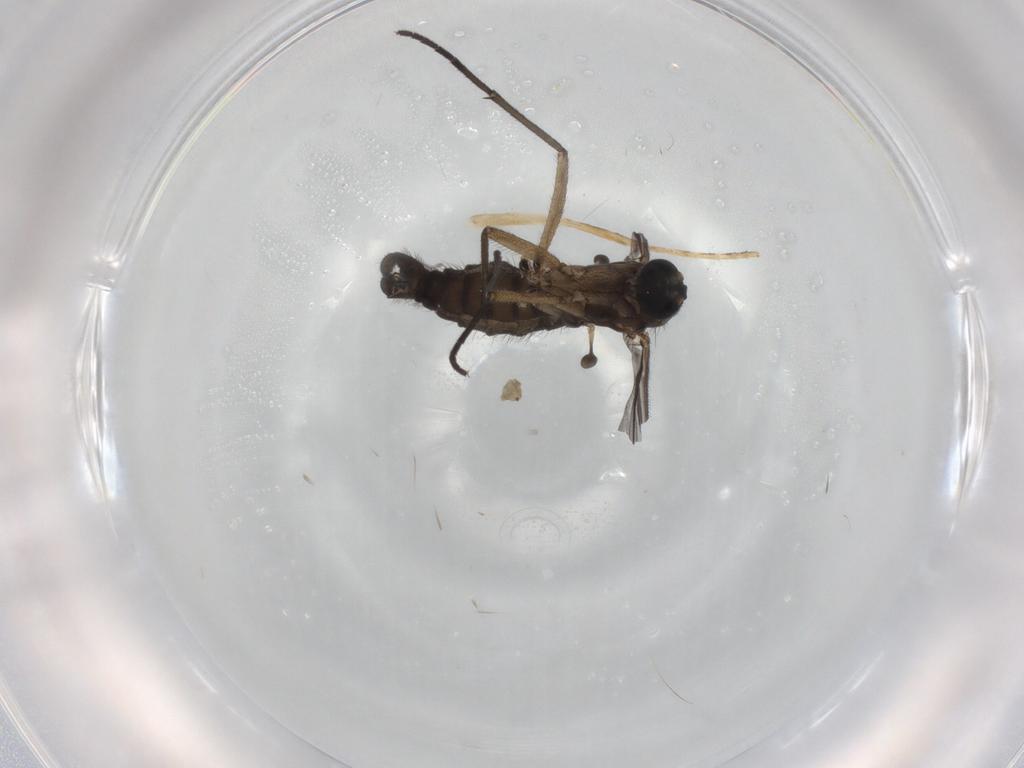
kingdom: Animalia
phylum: Arthropoda
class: Insecta
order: Diptera
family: Sciaridae
